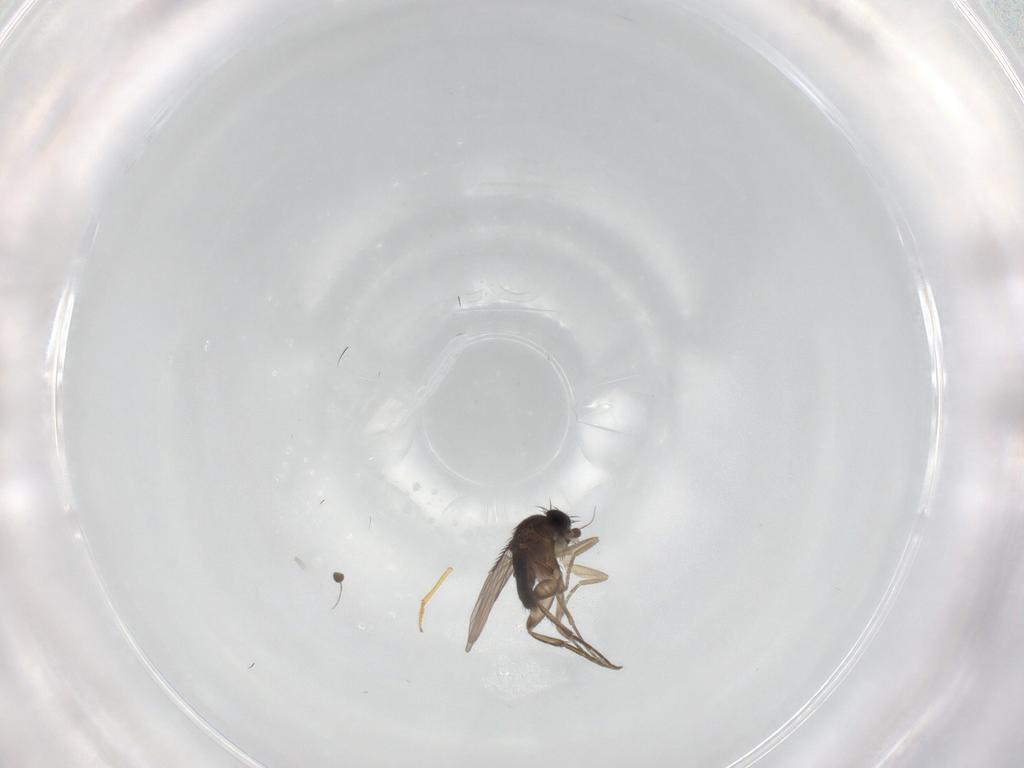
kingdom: Animalia
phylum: Arthropoda
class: Insecta
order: Diptera
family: Phoridae
